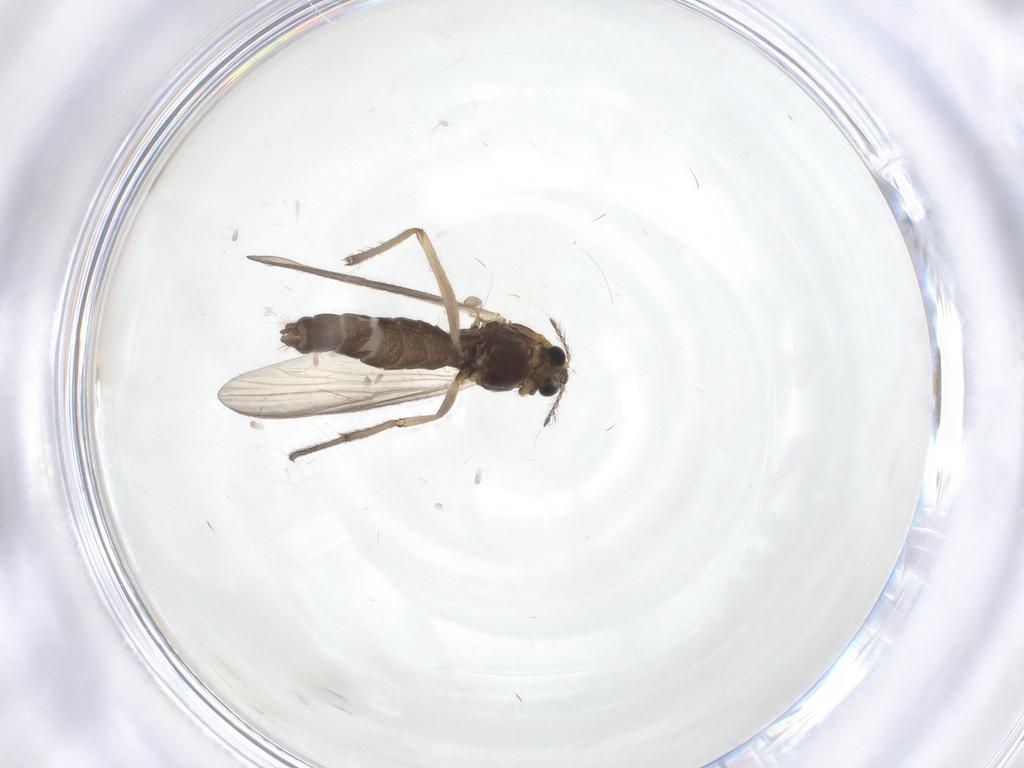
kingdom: Animalia
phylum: Arthropoda
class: Insecta
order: Diptera
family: Chironomidae
